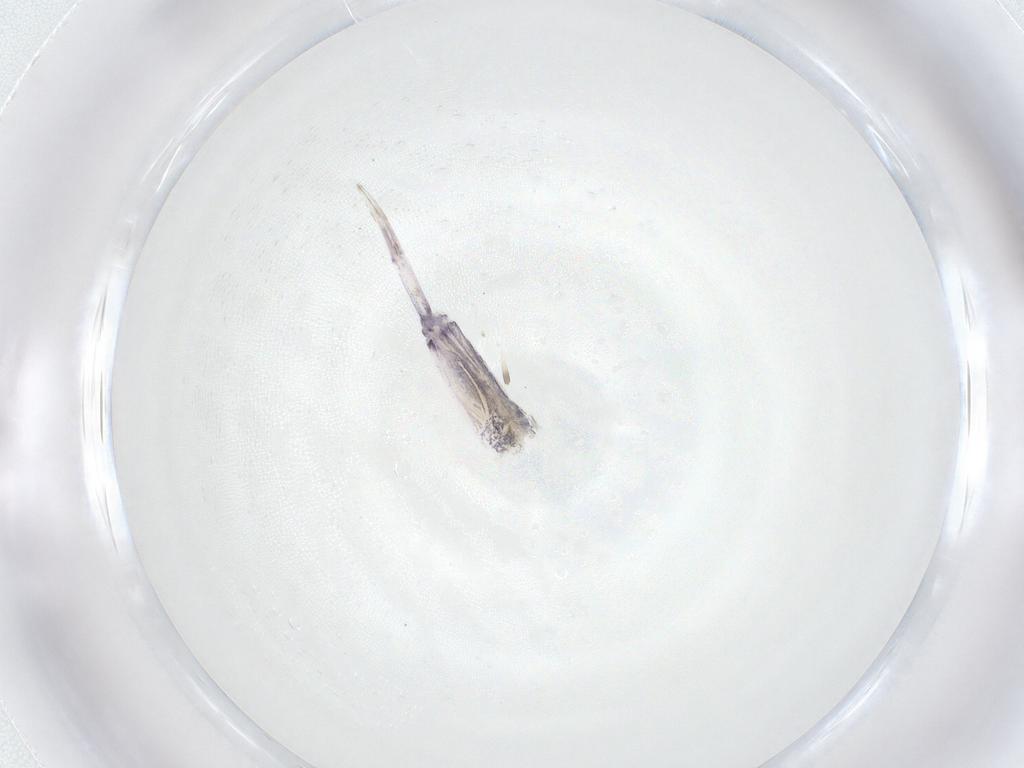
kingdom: Animalia
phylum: Arthropoda
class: Collembola
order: Entomobryomorpha
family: Entomobryidae
